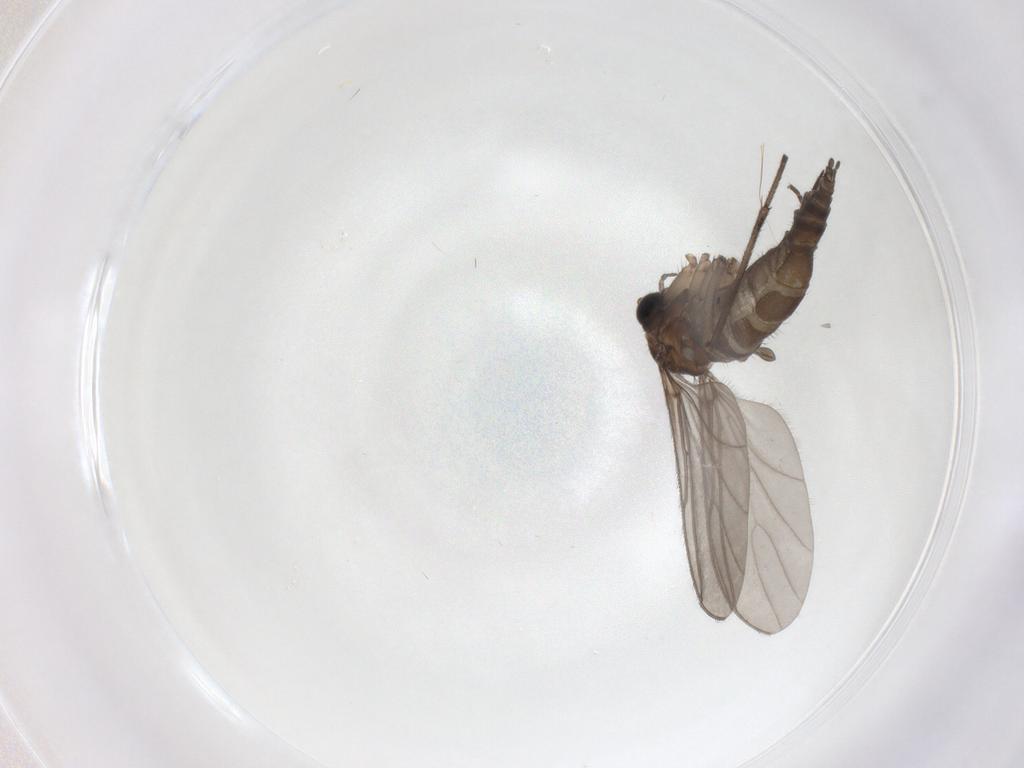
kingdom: Animalia
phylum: Arthropoda
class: Insecta
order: Diptera
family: Sciaridae
